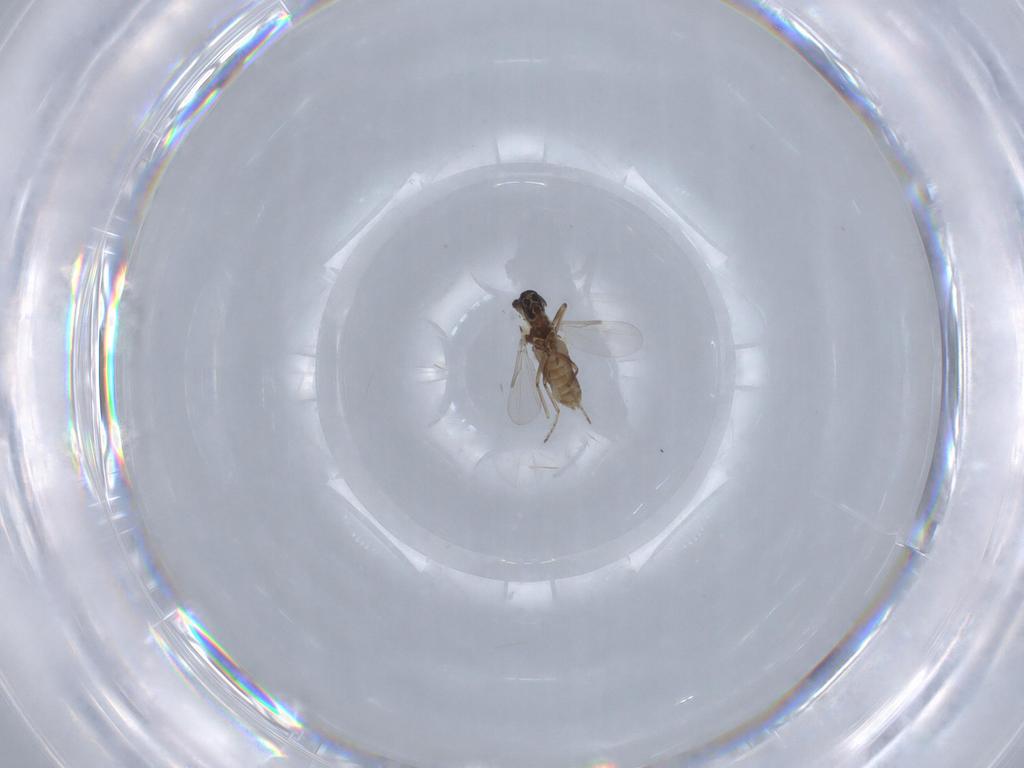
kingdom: Animalia
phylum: Arthropoda
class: Insecta
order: Diptera
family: Ceratopogonidae
